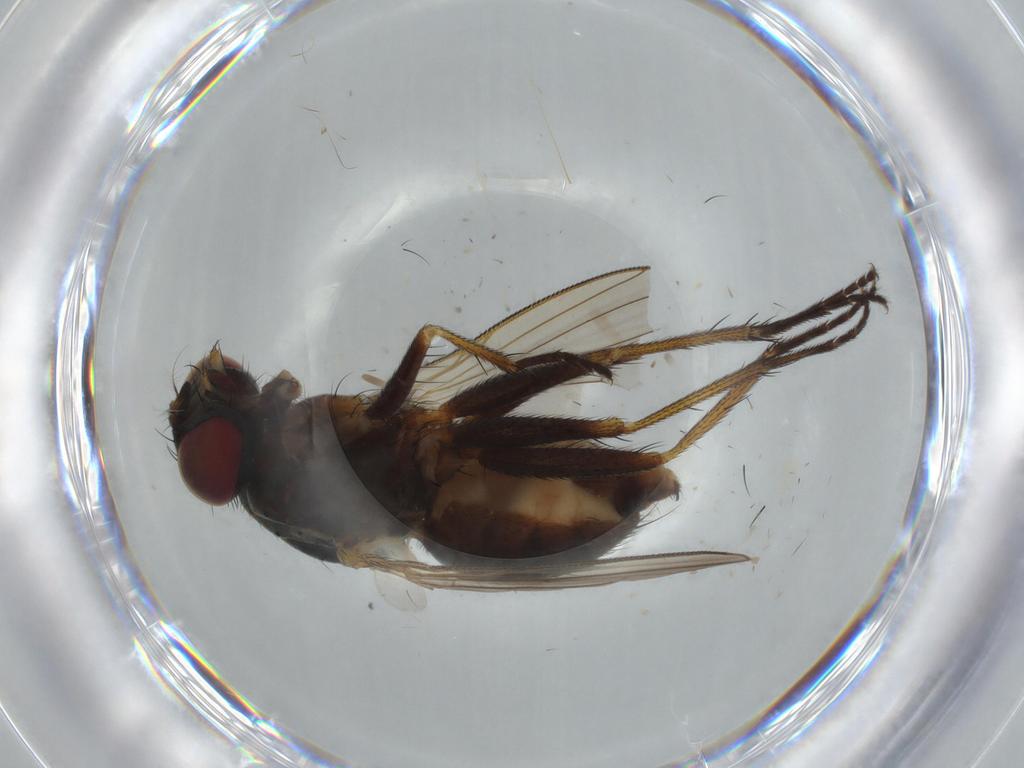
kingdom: Animalia
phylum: Arthropoda
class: Insecta
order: Diptera
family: Muscidae
